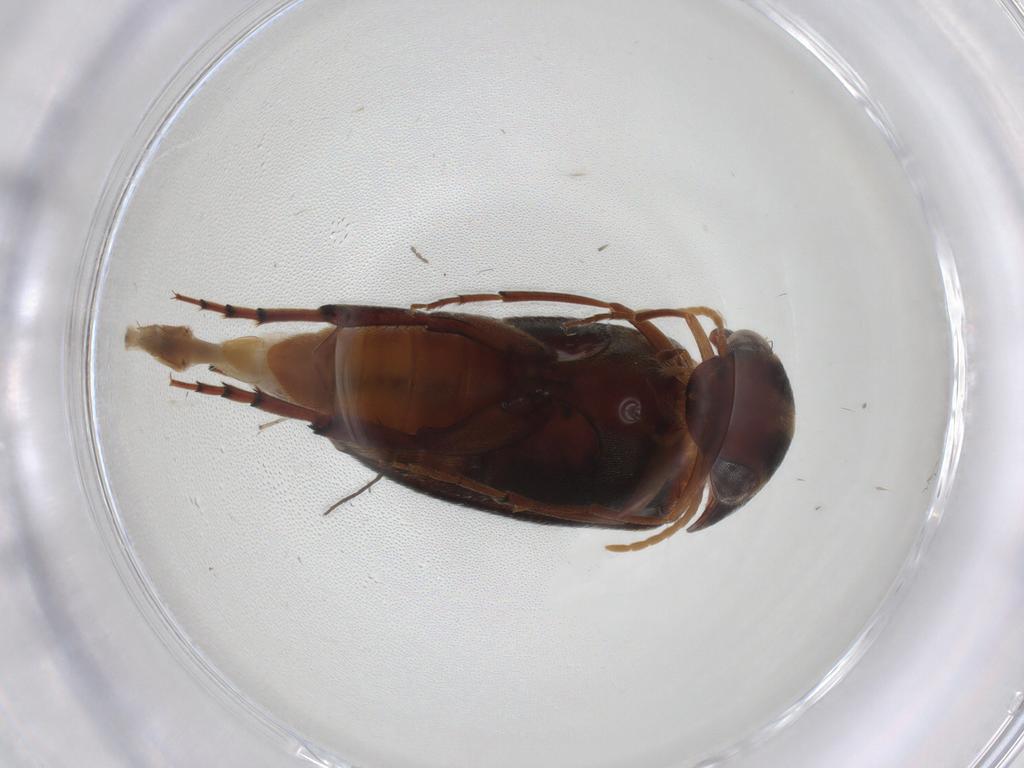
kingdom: Animalia
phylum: Arthropoda
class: Insecta
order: Coleoptera
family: Mordellidae
